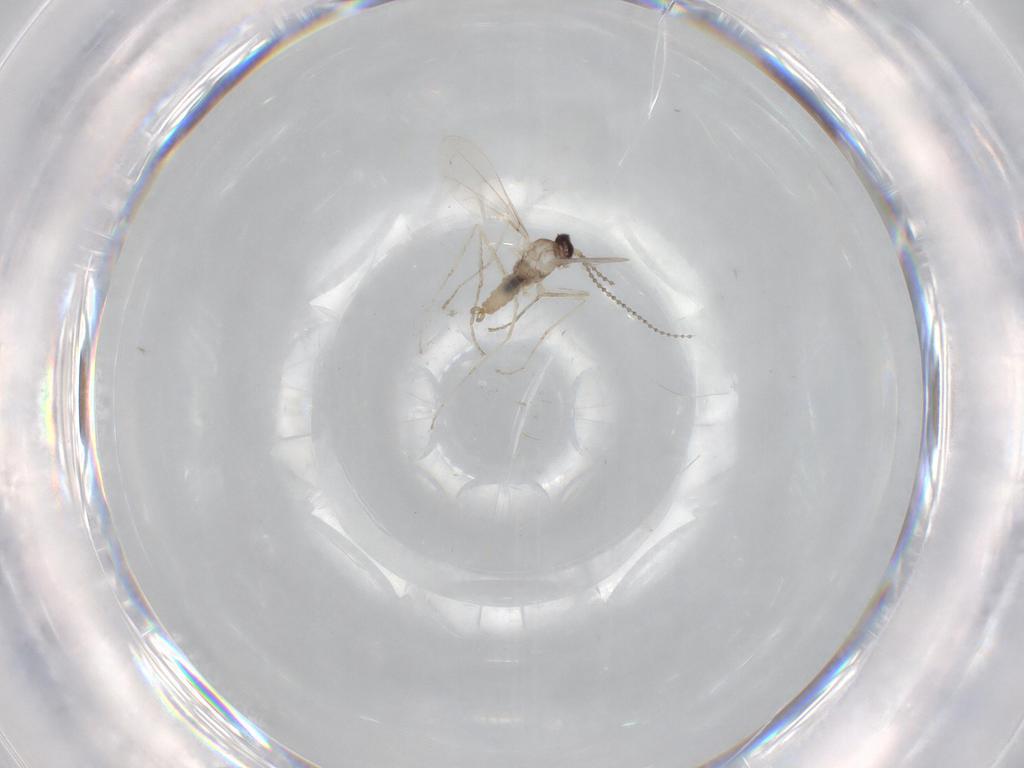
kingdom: Animalia
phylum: Arthropoda
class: Insecta
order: Diptera
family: Cecidomyiidae
